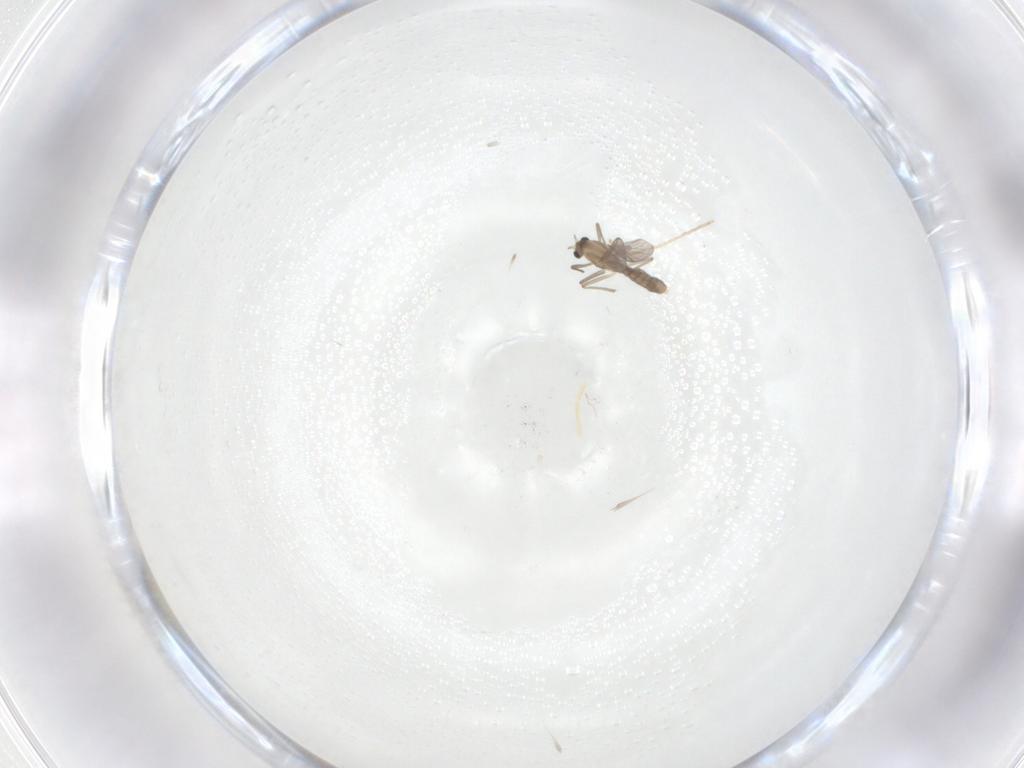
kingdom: Animalia
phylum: Arthropoda
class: Insecta
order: Diptera
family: Chironomidae
